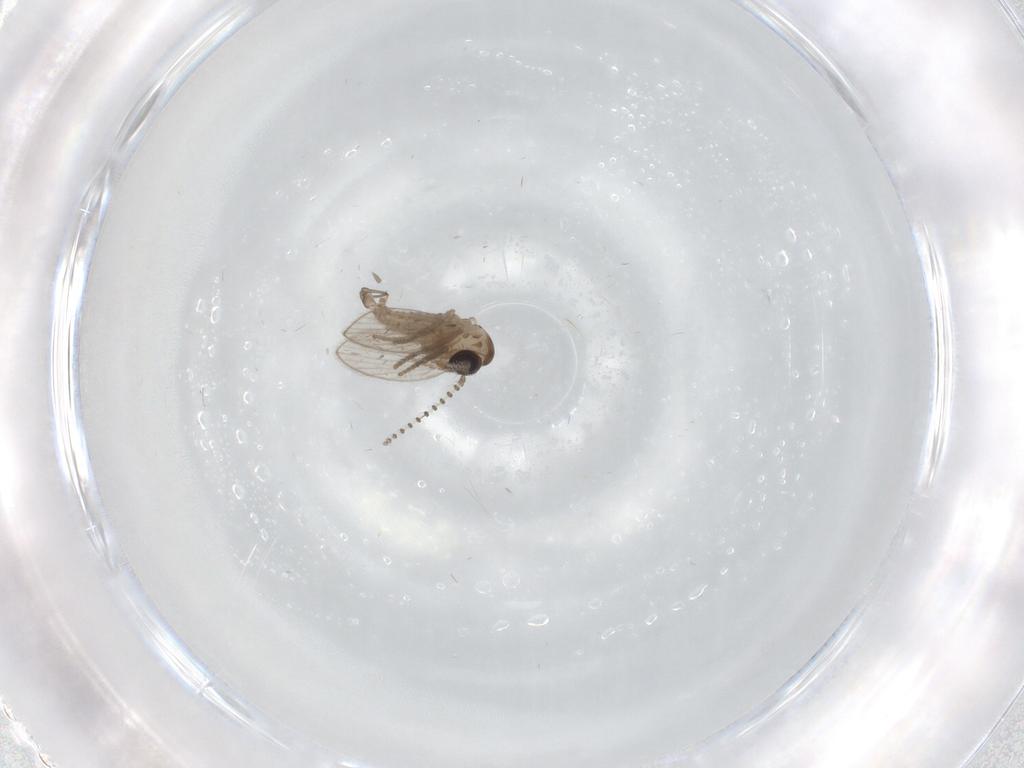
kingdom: Animalia
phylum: Arthropoda
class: Insecta
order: Diptera
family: Psychodidae
